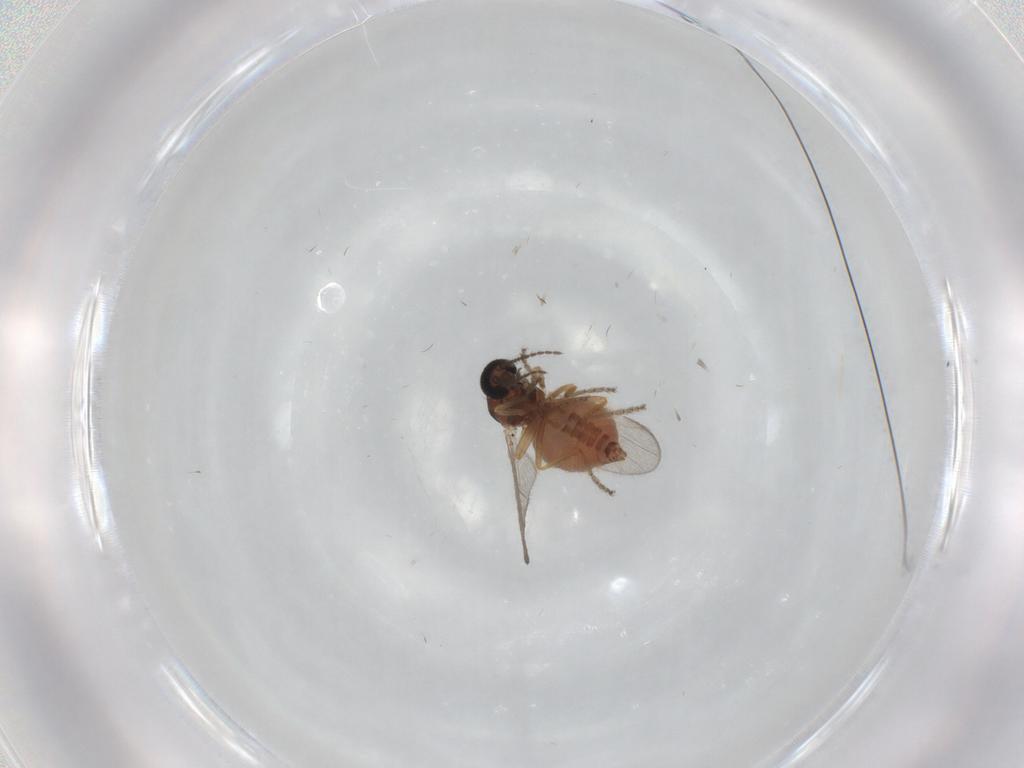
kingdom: Animalia
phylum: Arthropoda
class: Insecta
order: Diptera
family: Ceratopogonidae
